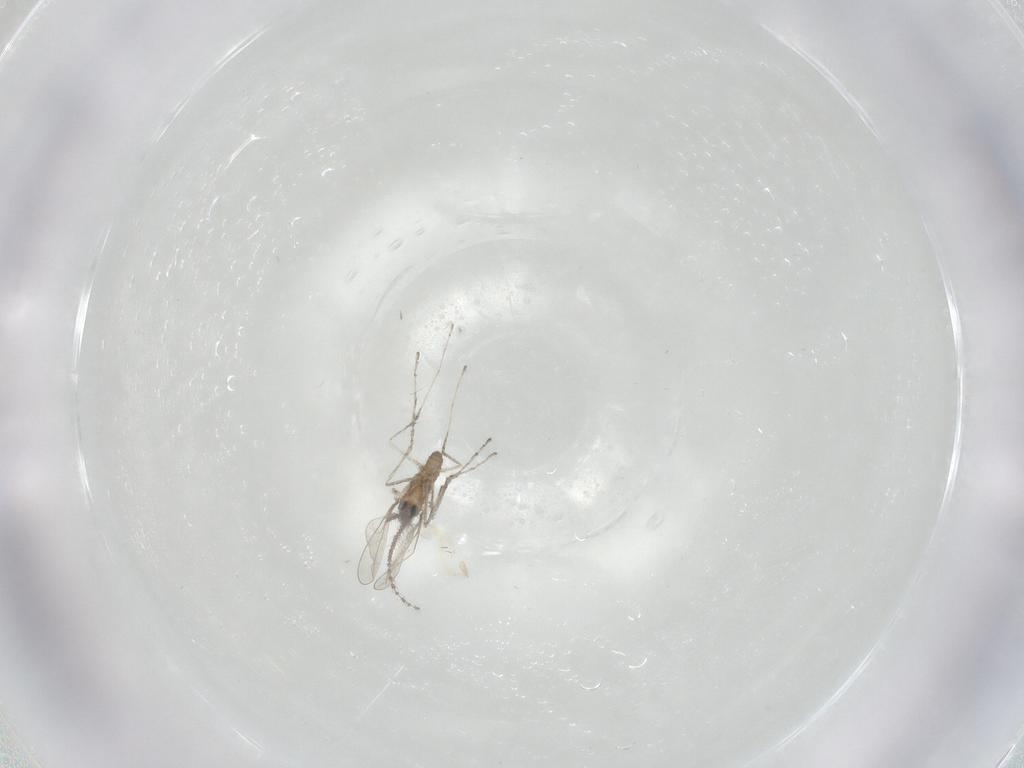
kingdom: Animalia
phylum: Arthropoda
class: Insecta
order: Diptera
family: Cecidomyiidae
